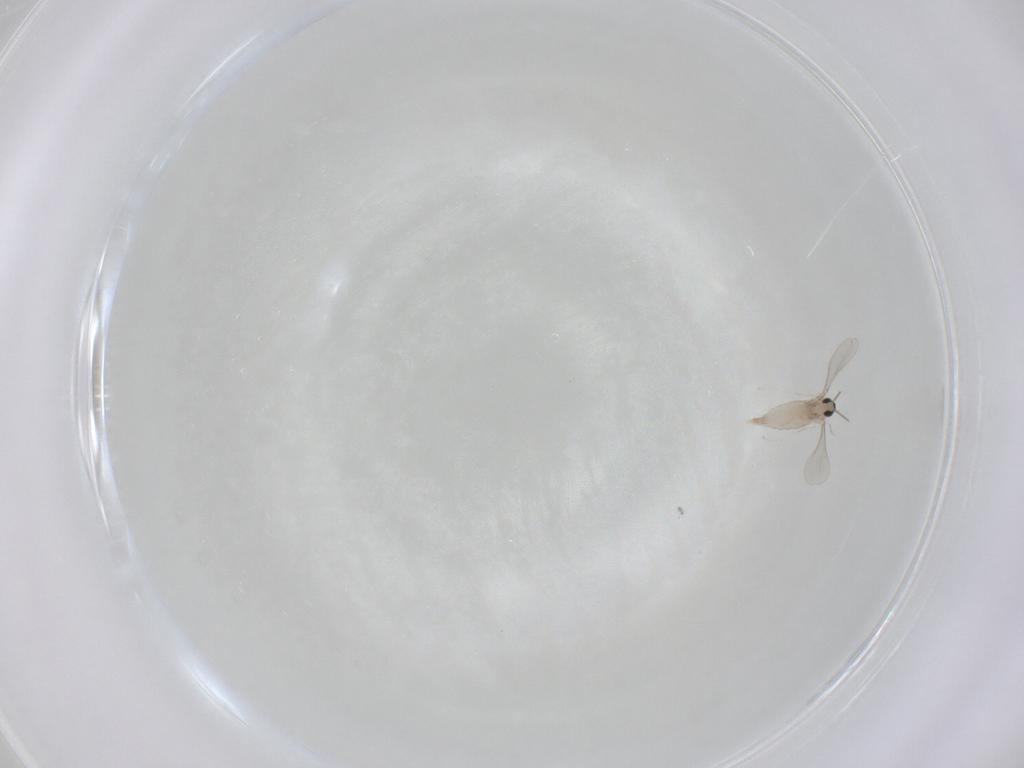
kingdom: Animalia
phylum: Arthropoda
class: Insecta
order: Diptera
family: Cecidomyiidae
